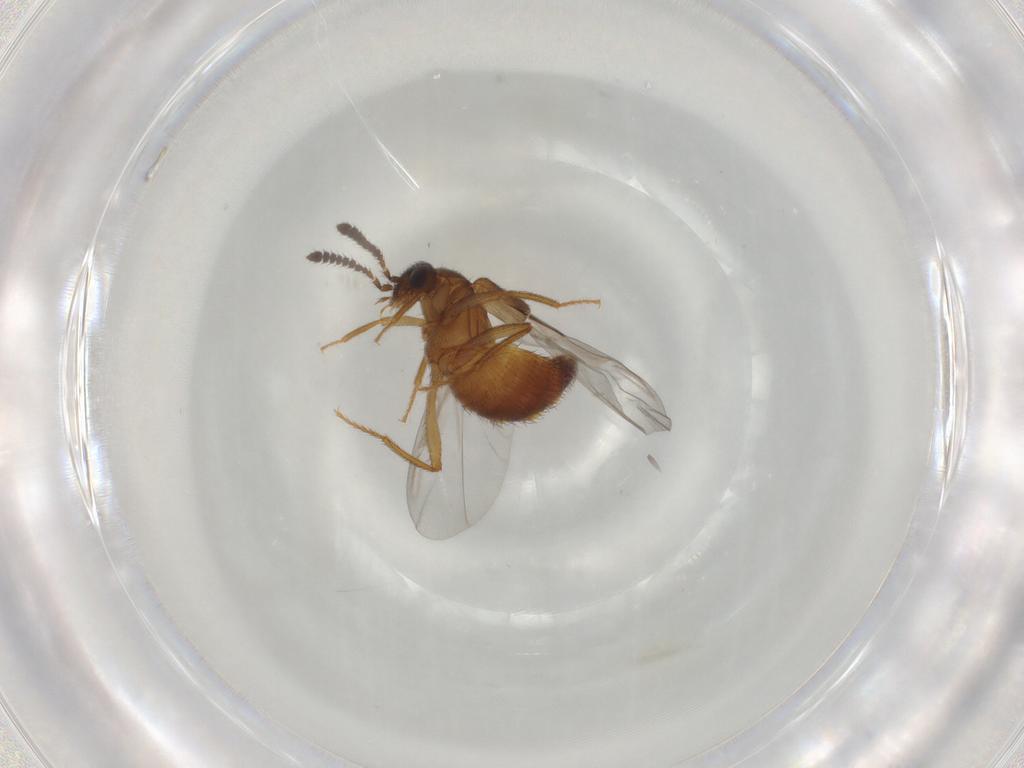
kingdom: Animalia
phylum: Arthropoda
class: Insecta
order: Coleoptera
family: Staphylinidae
